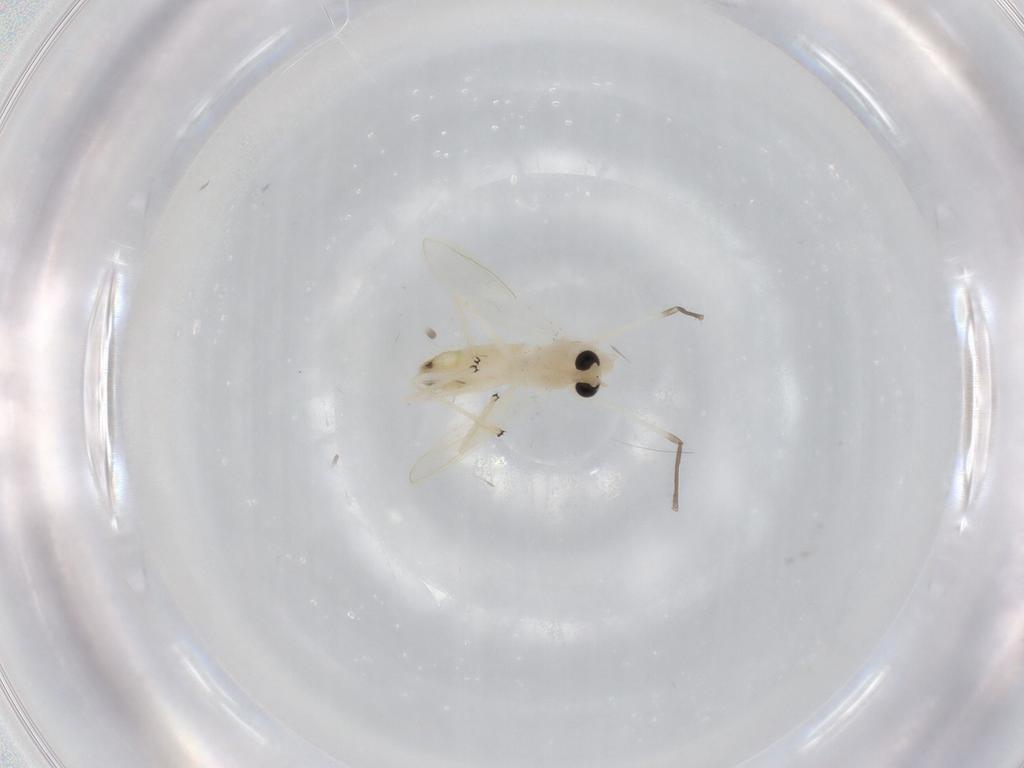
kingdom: Animalia
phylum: Arthropoda
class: Insecta
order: Diptera
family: Chironomidae
